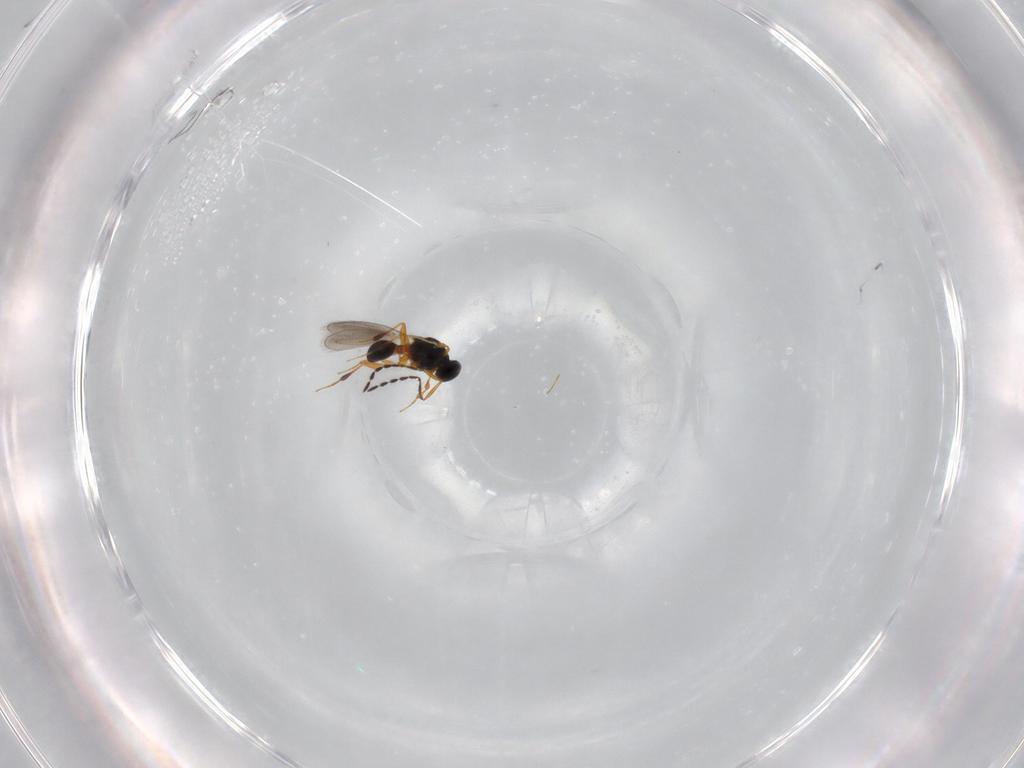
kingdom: Animalia
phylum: Arthropoda
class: Insecta
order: Hymenoptera
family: Platygastridae
